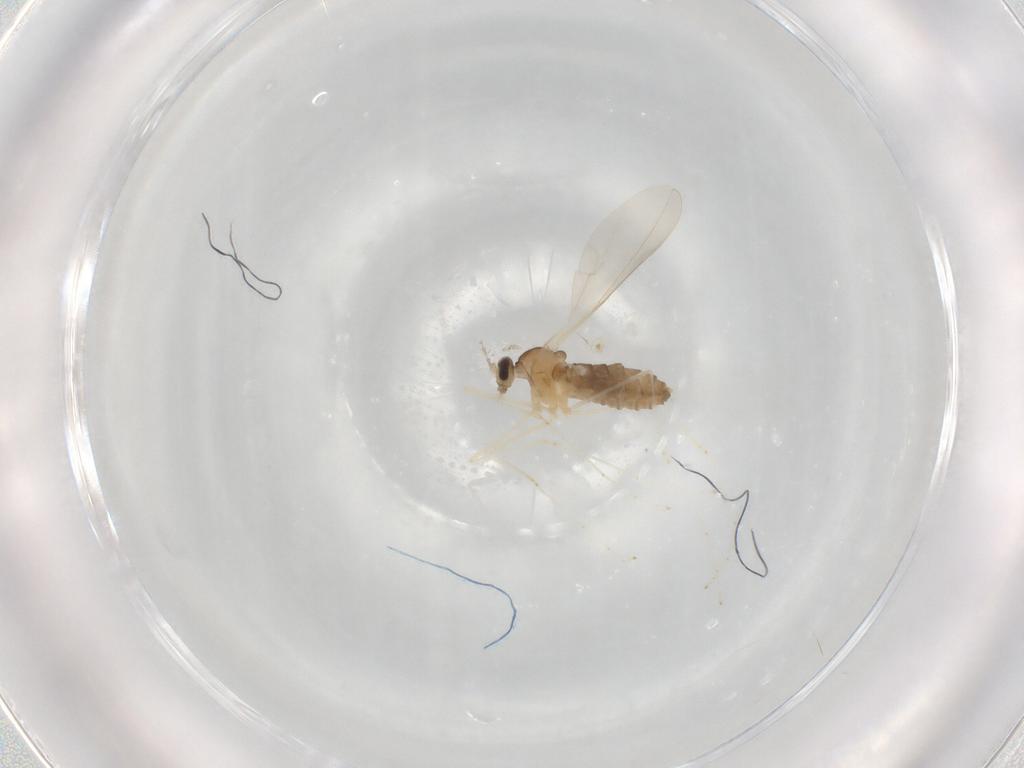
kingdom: Animalia
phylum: Arthropoda
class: Insecta
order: Diptera
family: Cecidomyiidae
